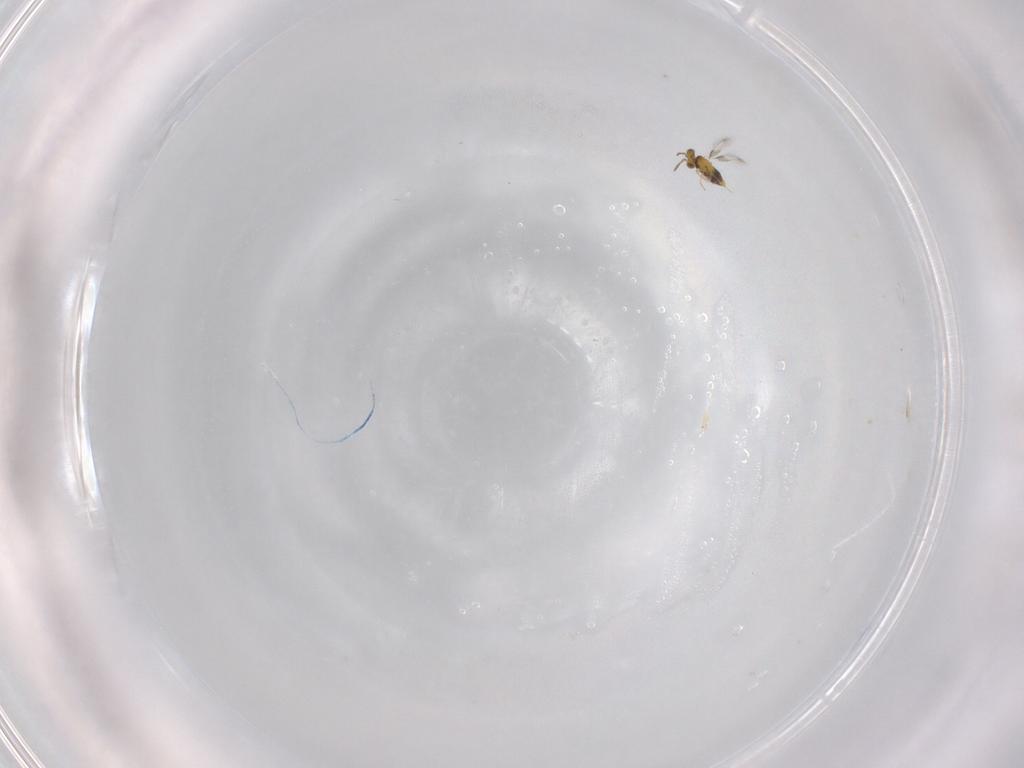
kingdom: Animalia
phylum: Arthropoda
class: Insecta
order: Hymenoptera
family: Aphelinidae
